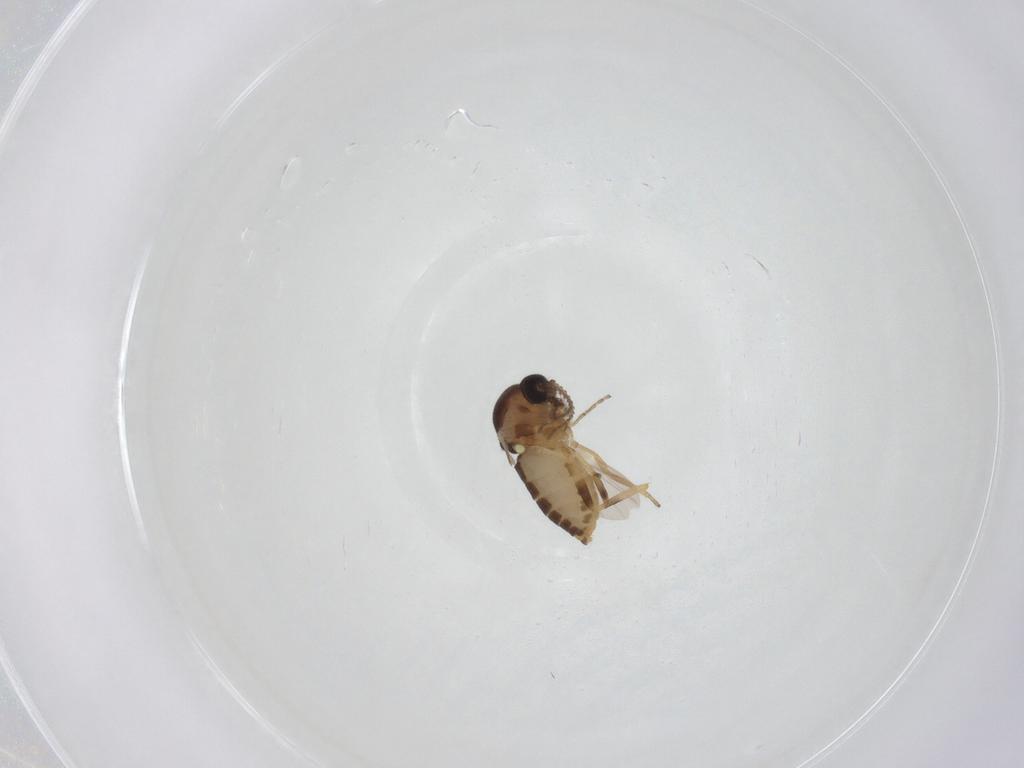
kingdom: Animalia
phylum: Arthropoda
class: Insecta
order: Diptera
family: Ceratopogonidae
